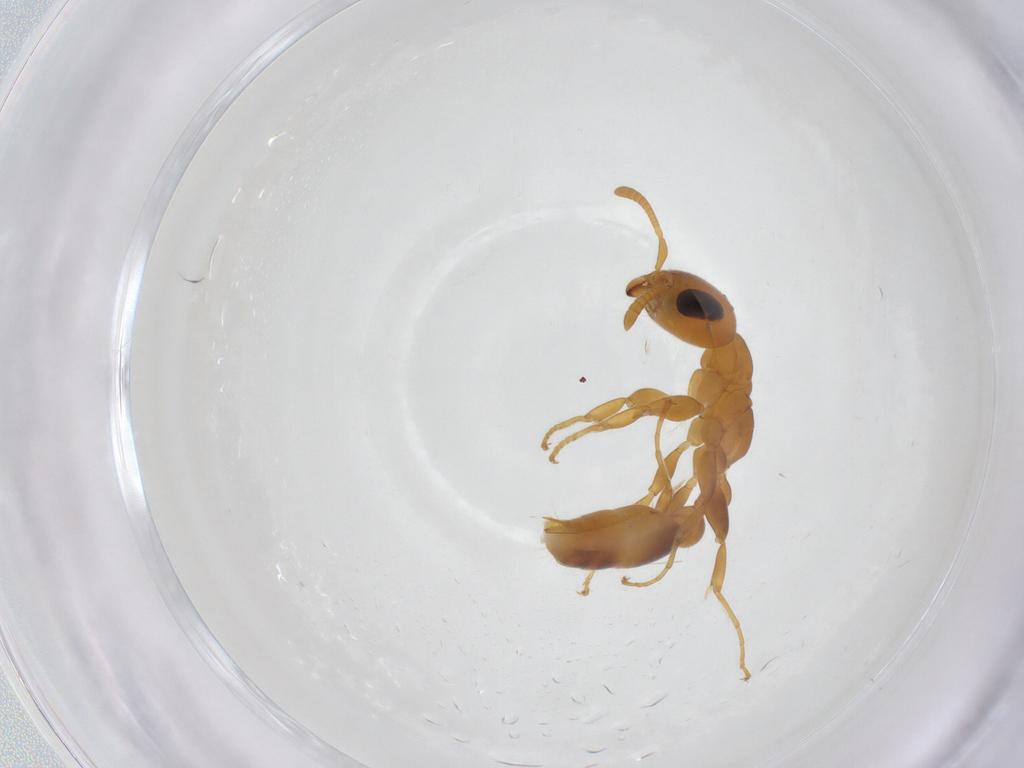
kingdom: Animalia
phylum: Arthropoda
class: Insecta
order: Hymenoptera
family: Formicidae
